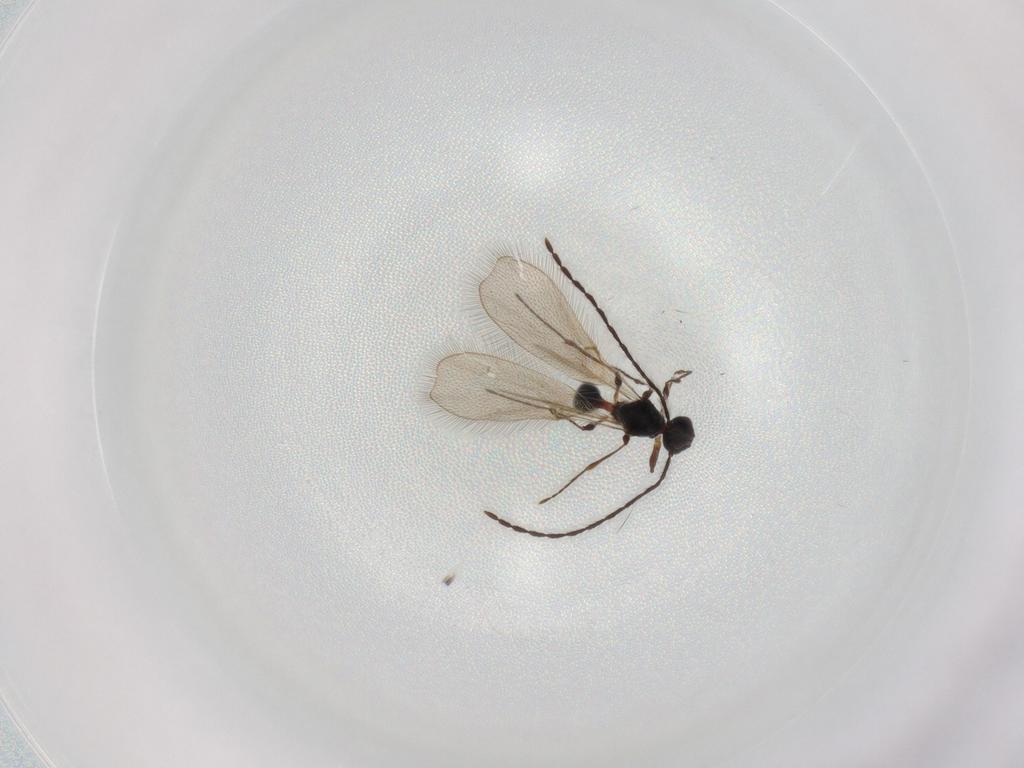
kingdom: Animalia
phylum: Arthropoda
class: Insecta
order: Hymenoptera
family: Diapriidae
